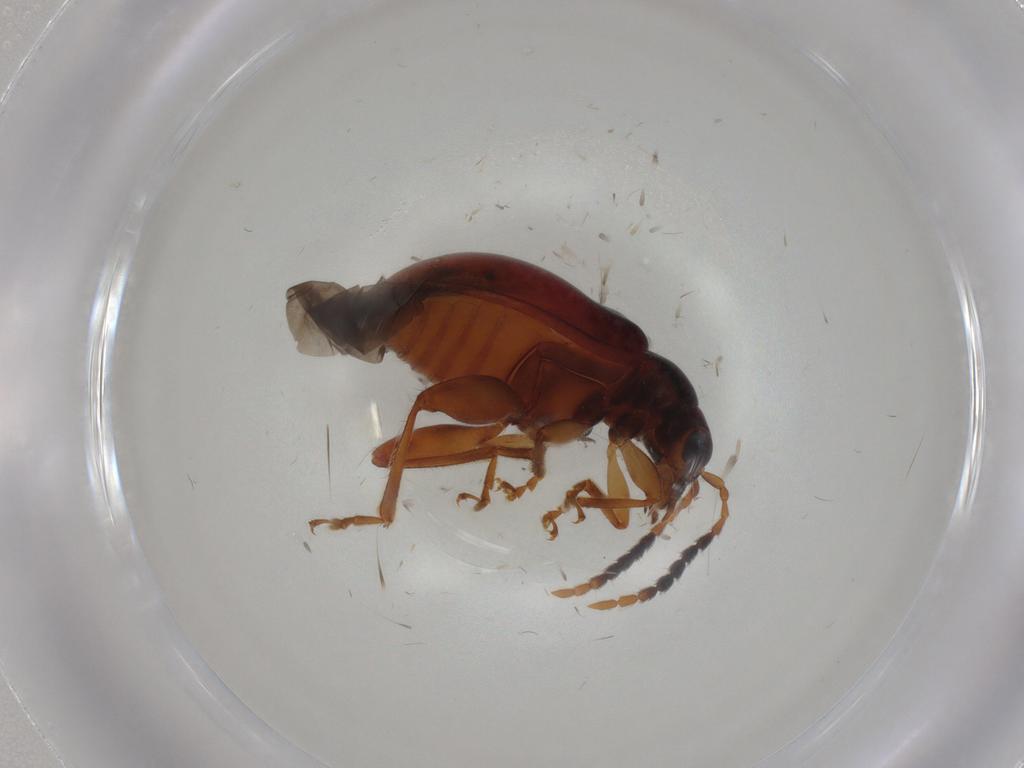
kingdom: Animalia
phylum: Arthropoda
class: Insecta
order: Coleoptera
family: Chrysomelidae
